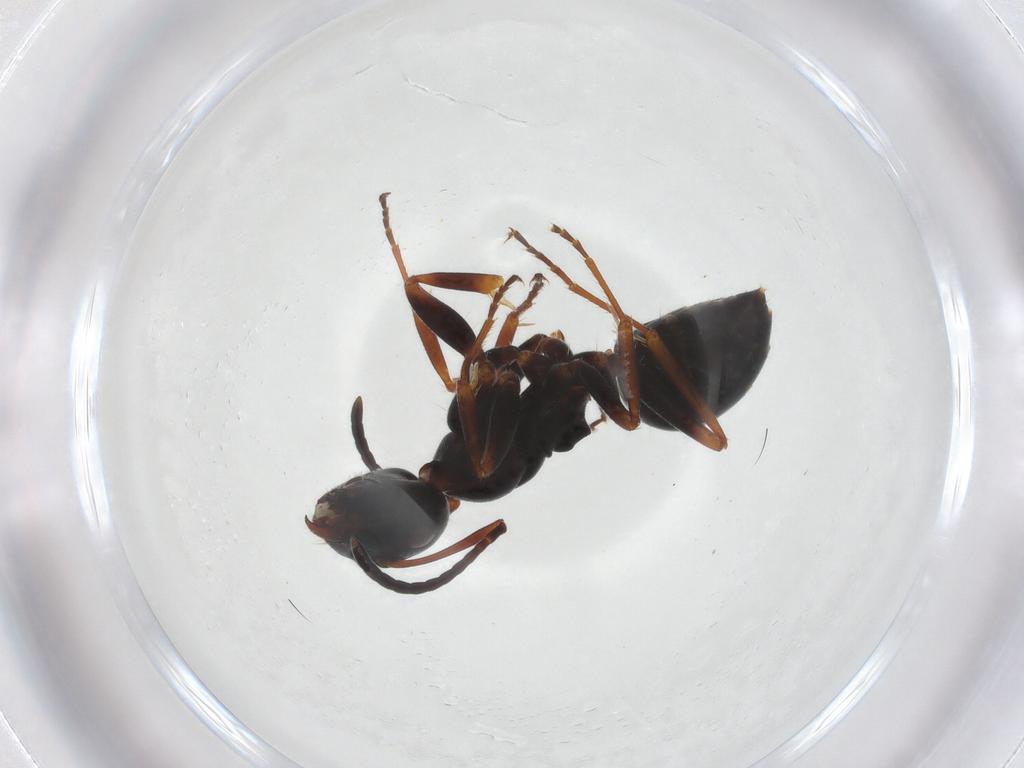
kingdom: Animalia
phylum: Arthropoda
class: Insecta
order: Hymenoptera
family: Formicidae
